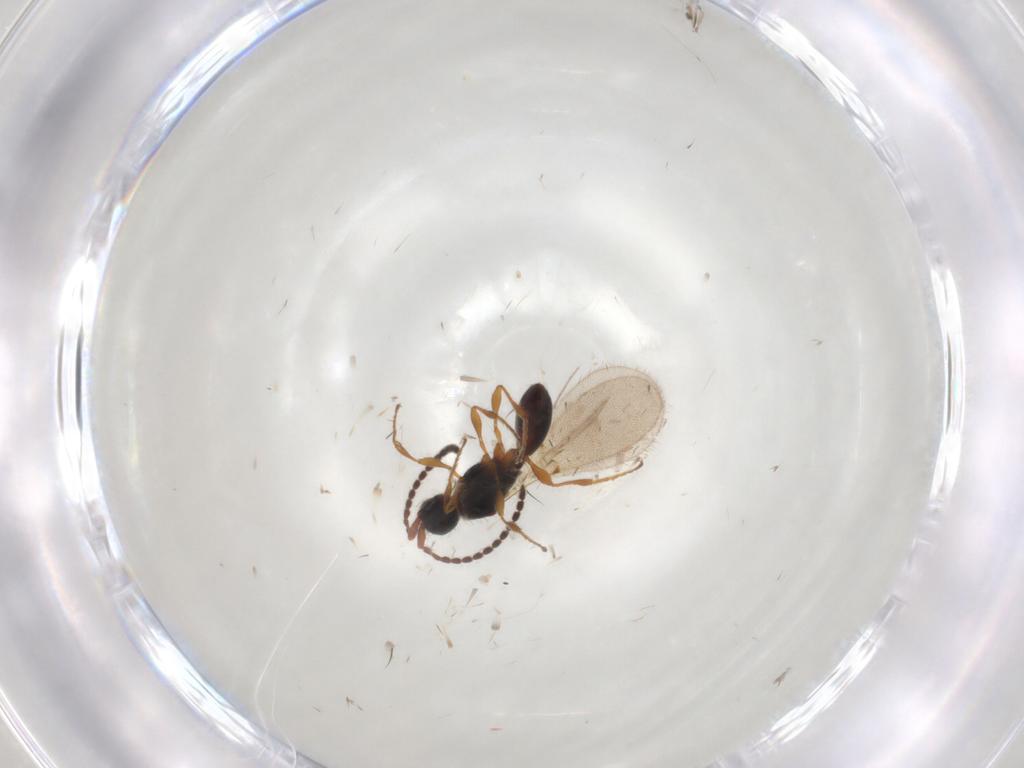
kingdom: Animalia
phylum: Arthropoda
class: Insecta
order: Hymenoptera
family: Diapriidae
